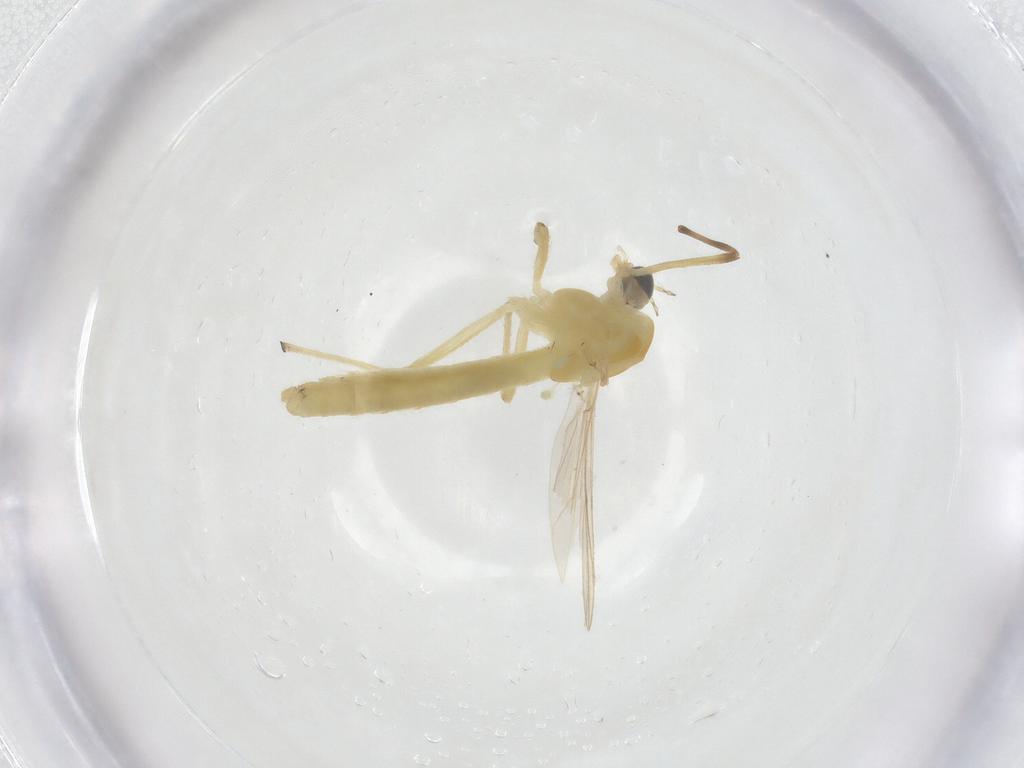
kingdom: Animalia
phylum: Arthropoda
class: Insecta
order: Diptera
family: Chironomidae
